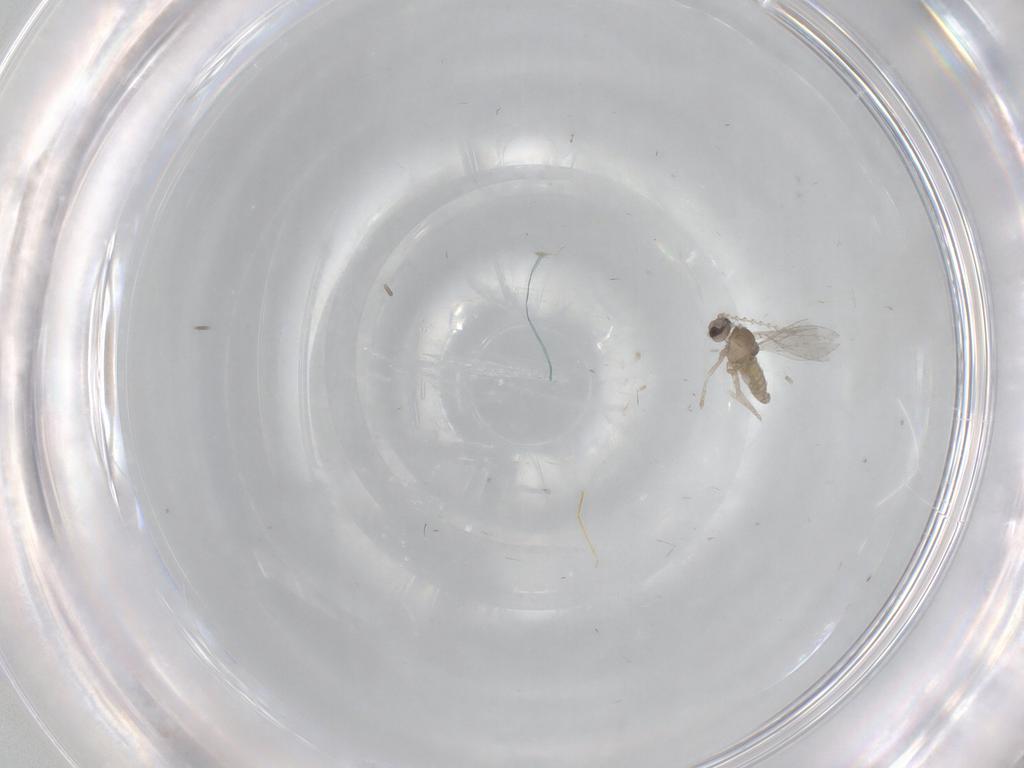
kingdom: Animalia
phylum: Arthropoda
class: Insecta
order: Diptera
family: Cecidomyiidae
